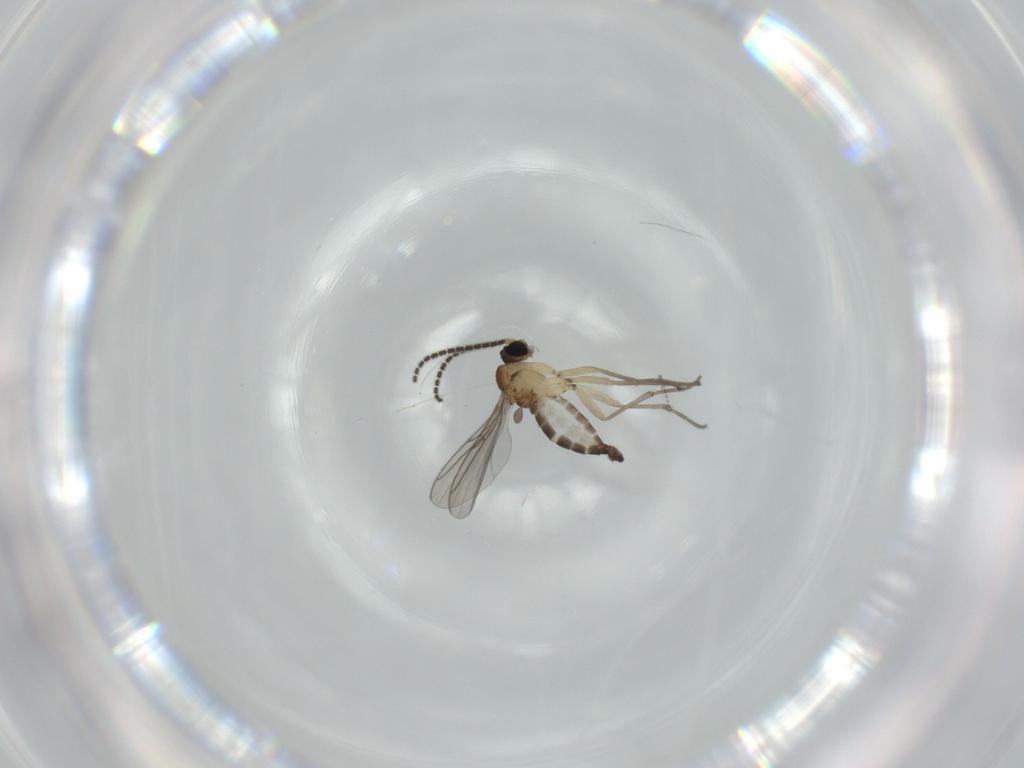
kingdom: Animalia
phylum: Arthropoda
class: Insecta
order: Diptera
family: Sciaridae
